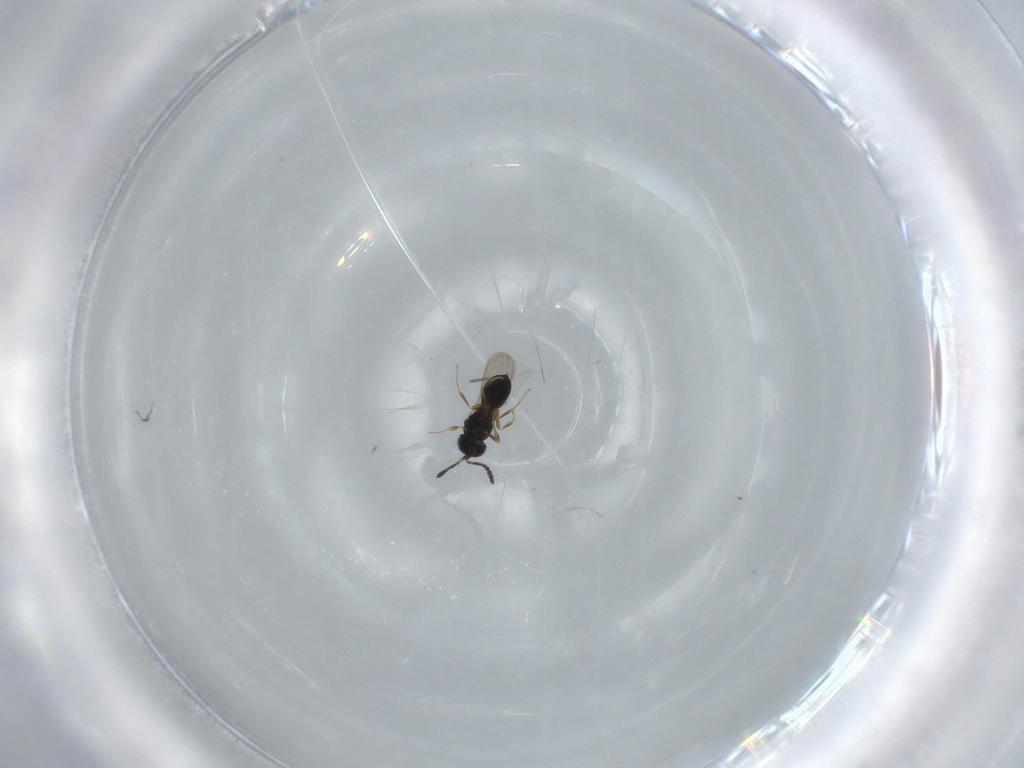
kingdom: Animalia
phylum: Arthropoda
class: Insecta
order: Hymenoptera
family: Scelionidae
